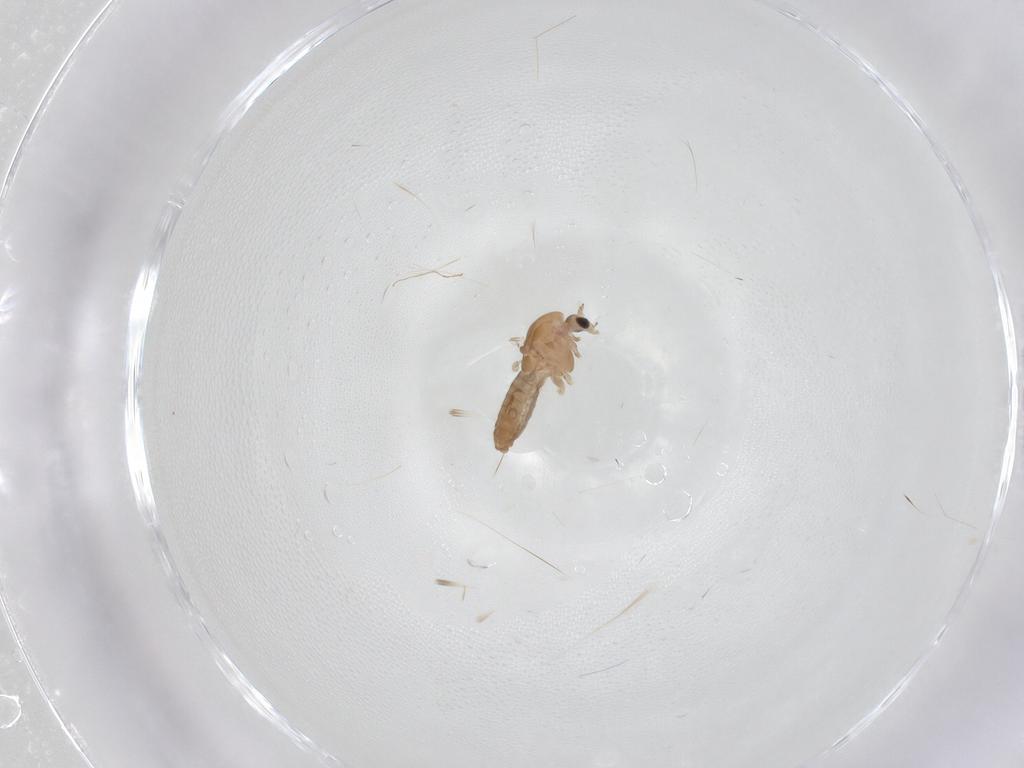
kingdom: Animalia
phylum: Arthropoda
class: Insecta
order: Diptera
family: Chironomidae
